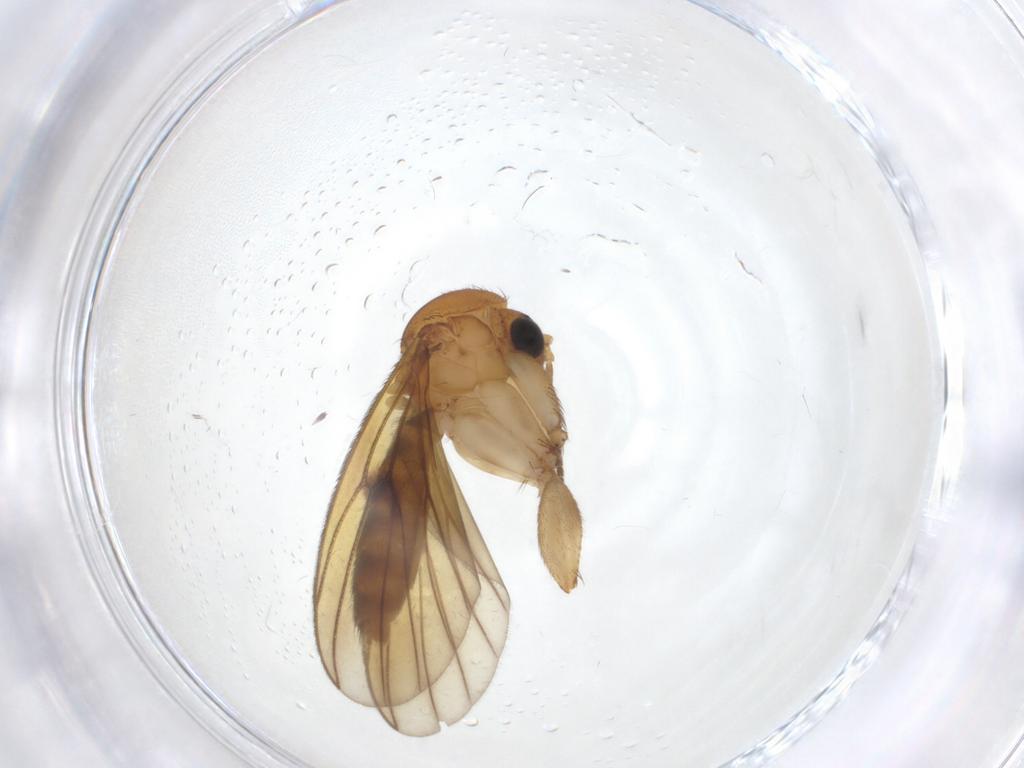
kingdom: Animalia
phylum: Arthropoda
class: Insecta
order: Diptera
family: Mycetophilidae
